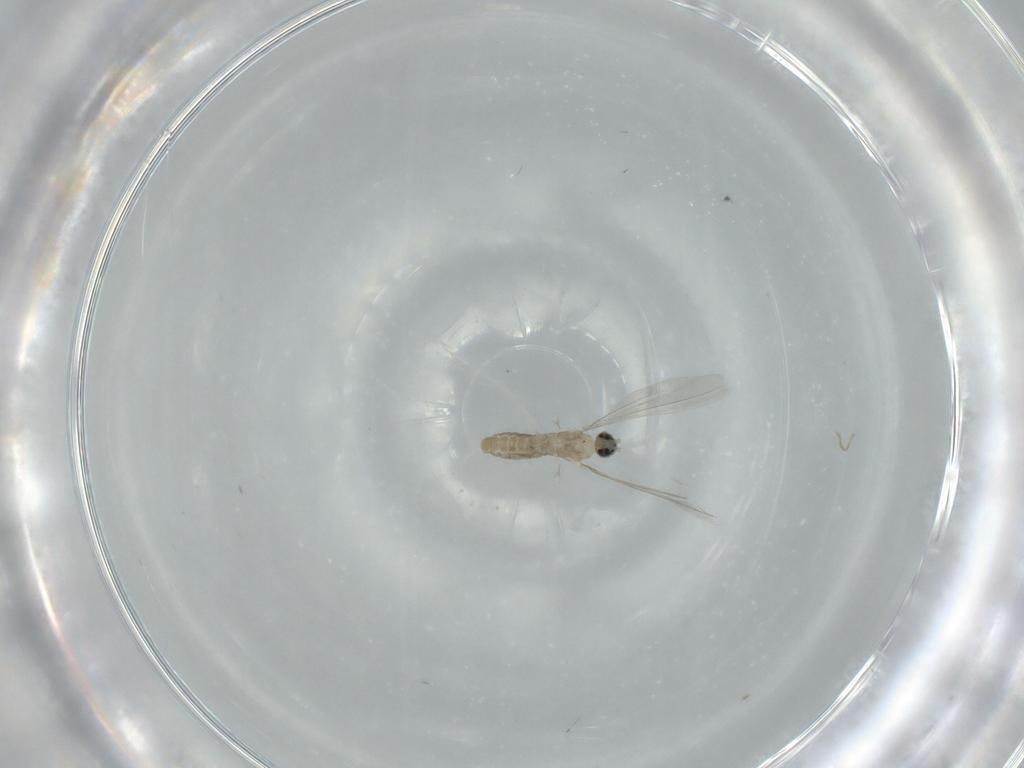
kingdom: Animalia
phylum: Arthropoda
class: Insecta
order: Diptera
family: Cecidomyiidae
